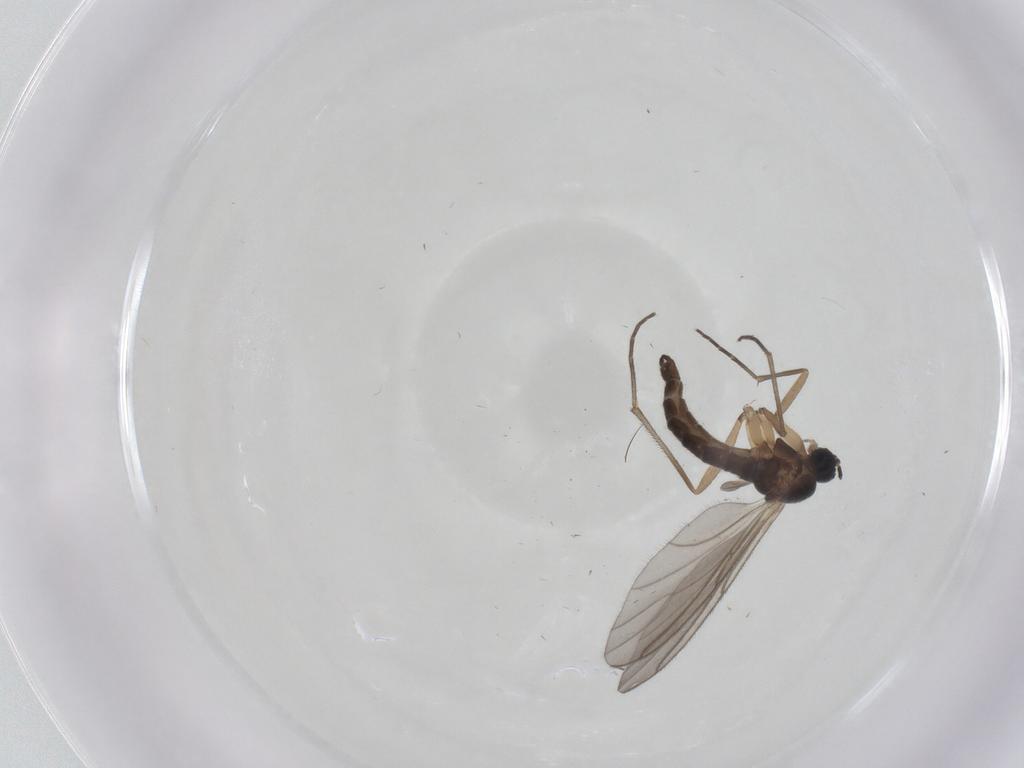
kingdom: Animalia
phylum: Arthropoda
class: Insecta
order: Diptera
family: Sciaridae
